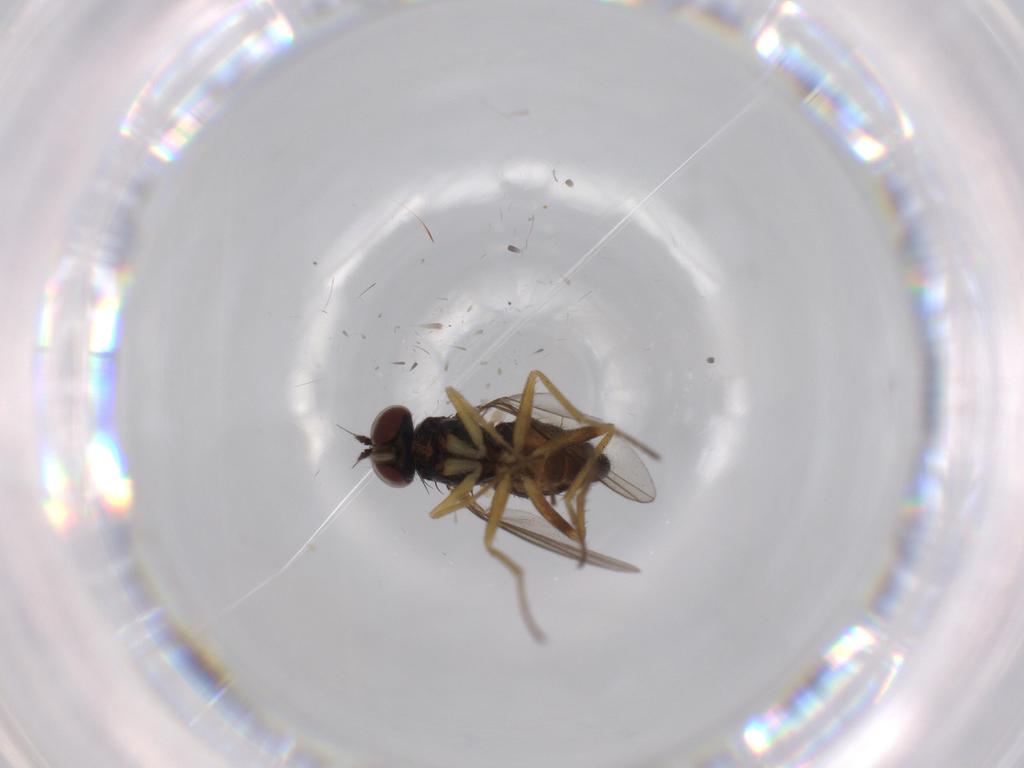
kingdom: Animalia
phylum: Arthropoda
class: Insecta
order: Diptera
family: Dolichopodidae
